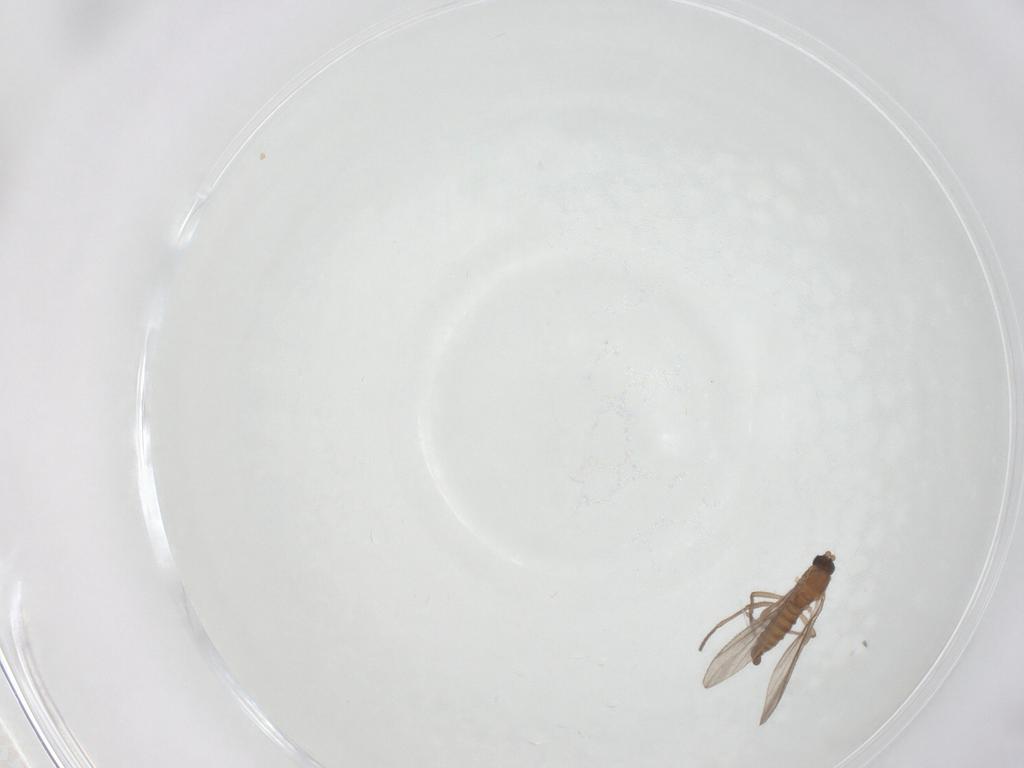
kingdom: Animalia
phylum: Arthropoda
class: Insecta
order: Diptera
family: Sciaridae
